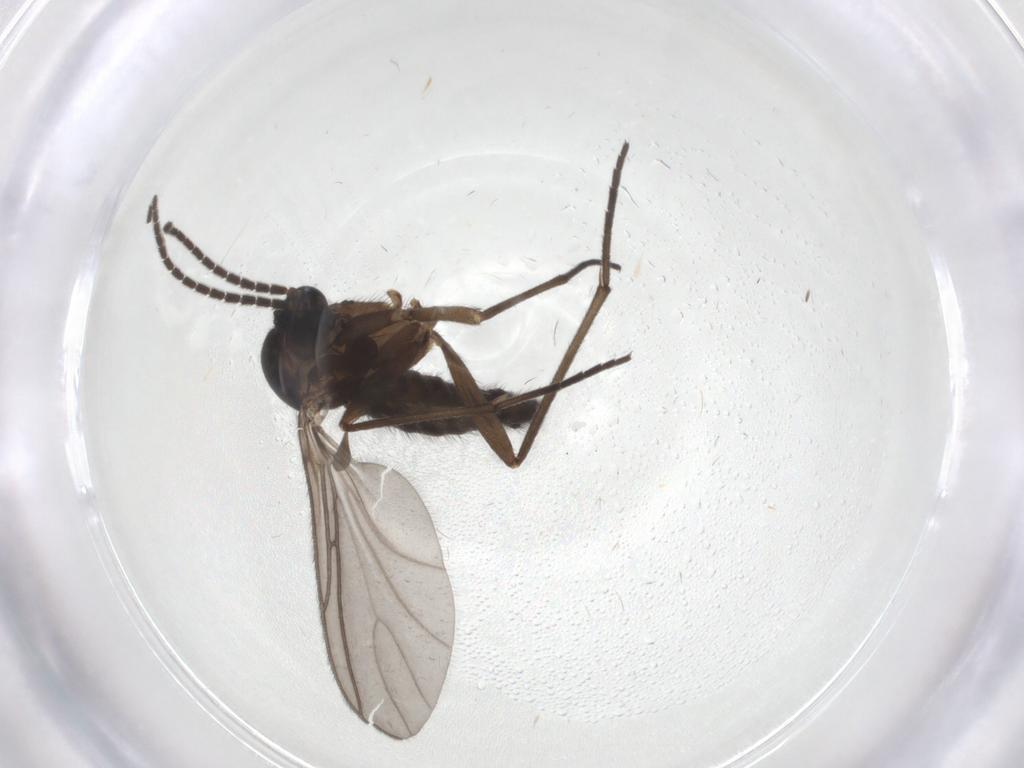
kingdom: Animalia
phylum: Arthropoda
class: Insecta
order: Diptera
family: Sciaridae
